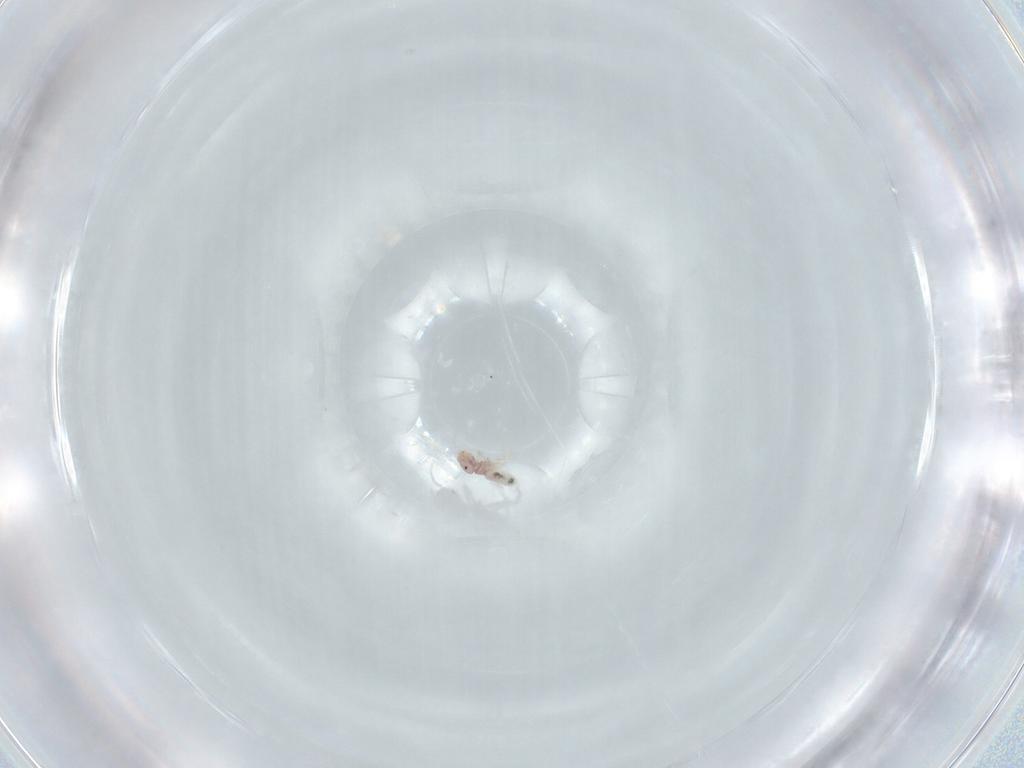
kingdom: Animalia
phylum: Arthropoda
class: Insecta
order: Psocodea
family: Liposcelididae
